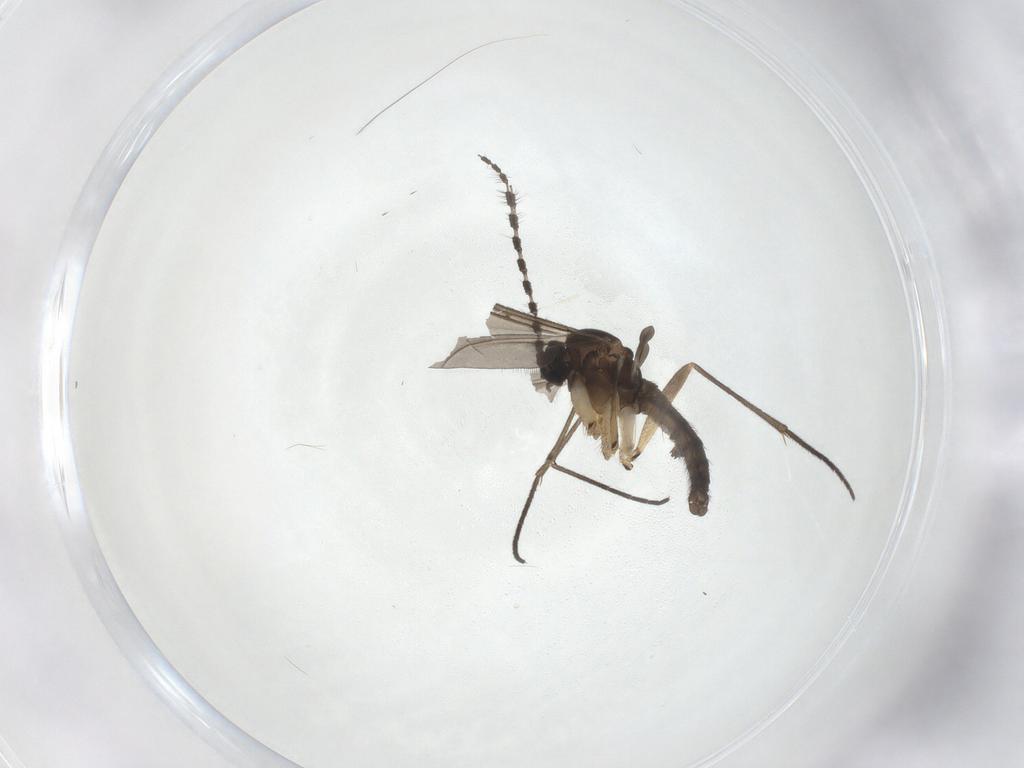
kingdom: Animalia
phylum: Arthropoda
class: Insecta
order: Diptera
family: Sciaridae
